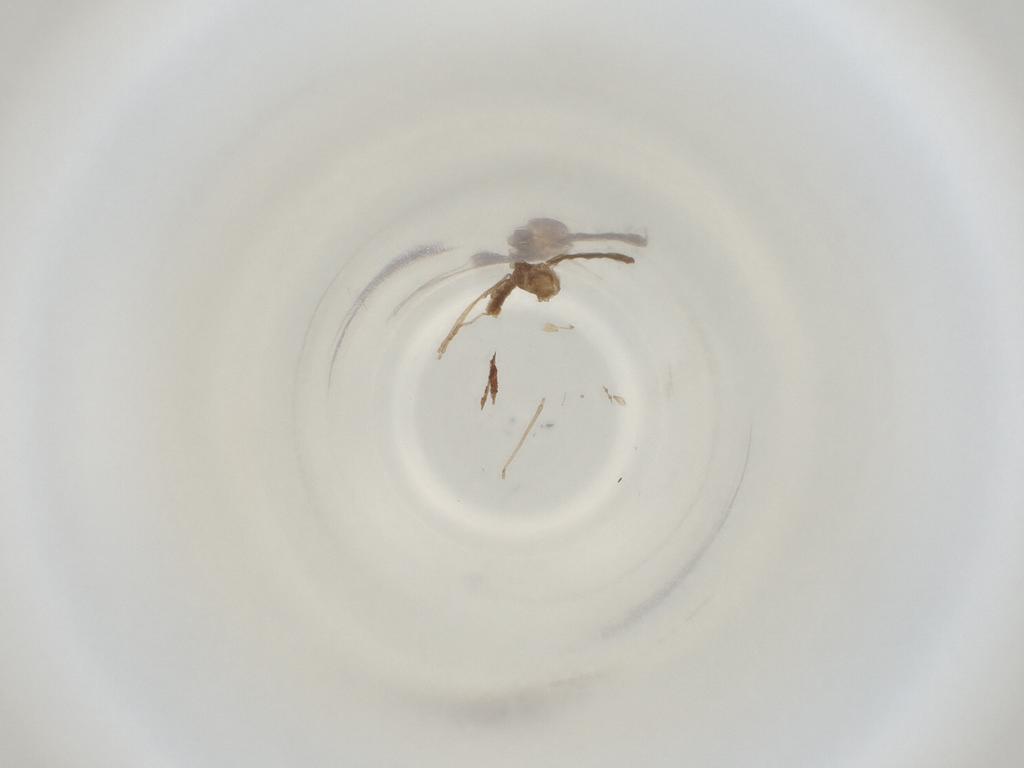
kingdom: Animalia
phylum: Arthropoda
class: Insecta
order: Diptera
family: Cecidomyiidae
